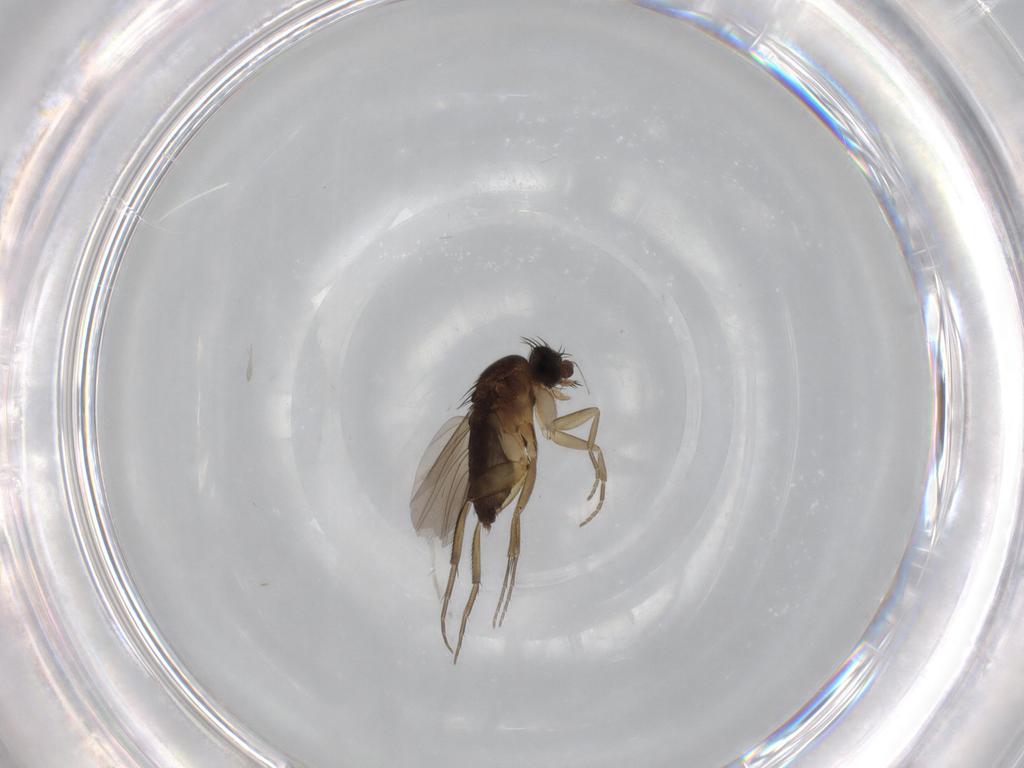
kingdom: Animalia
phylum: Arthropoda
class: Insecta
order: Diptera
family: Phoridae
